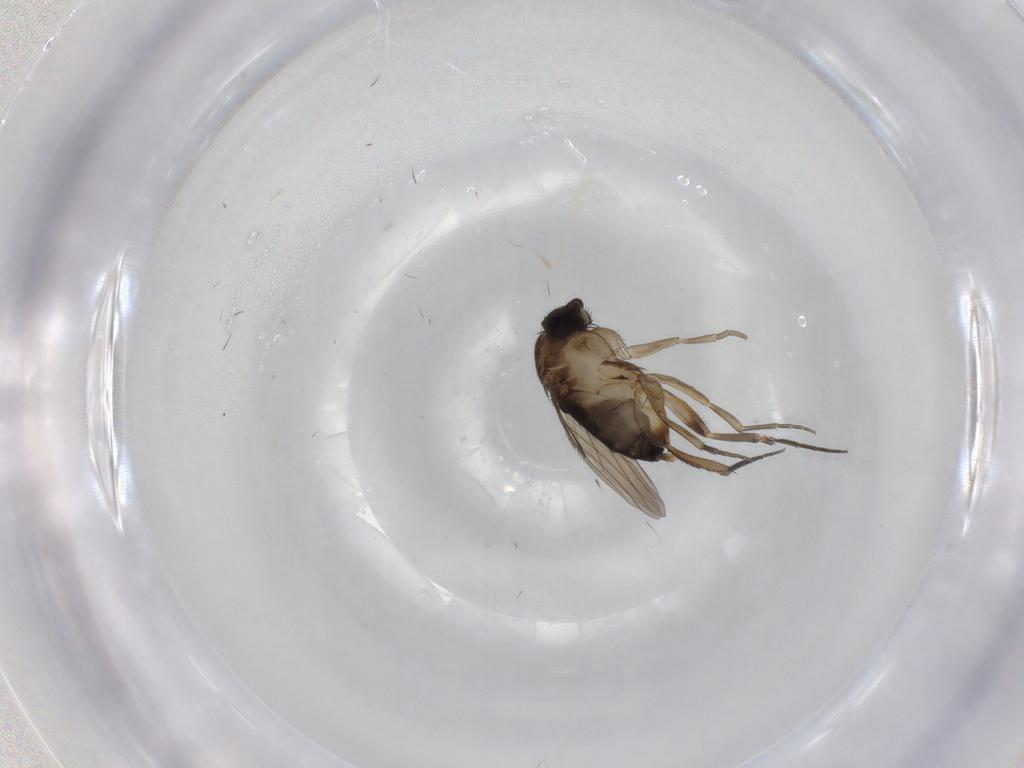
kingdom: Animalia
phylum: Arthropoda
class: Insecta
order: Diptera
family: Phoridae
